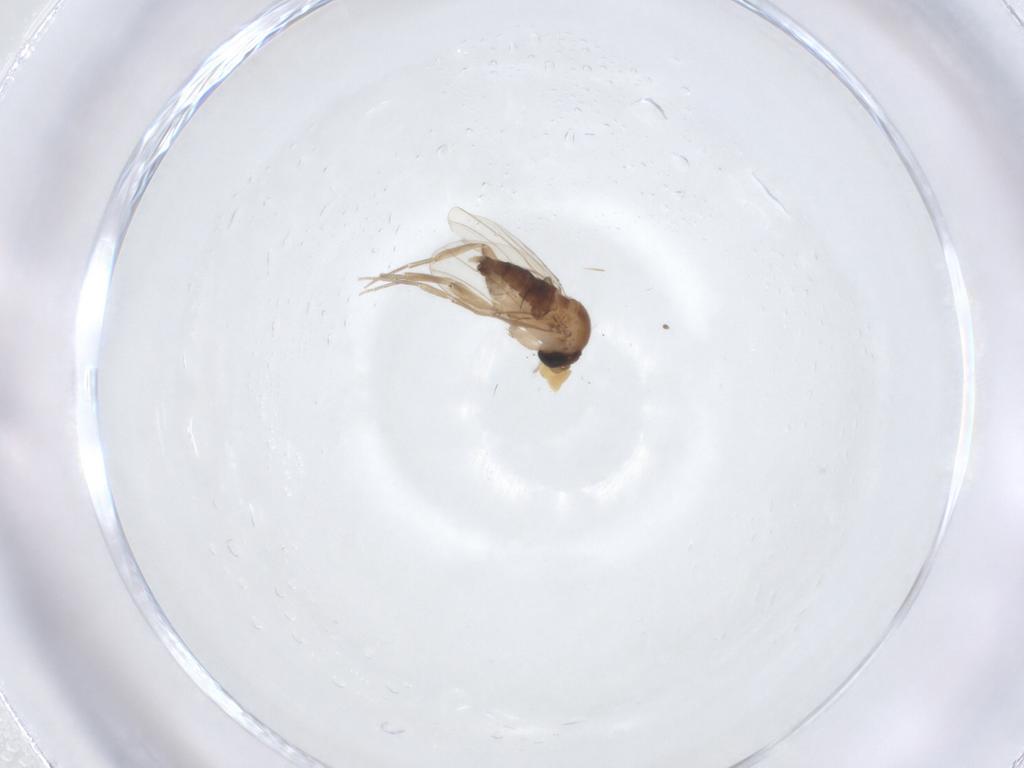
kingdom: Animalia
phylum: Arthropoda
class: Insecta
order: Diptera
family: Phoridae
